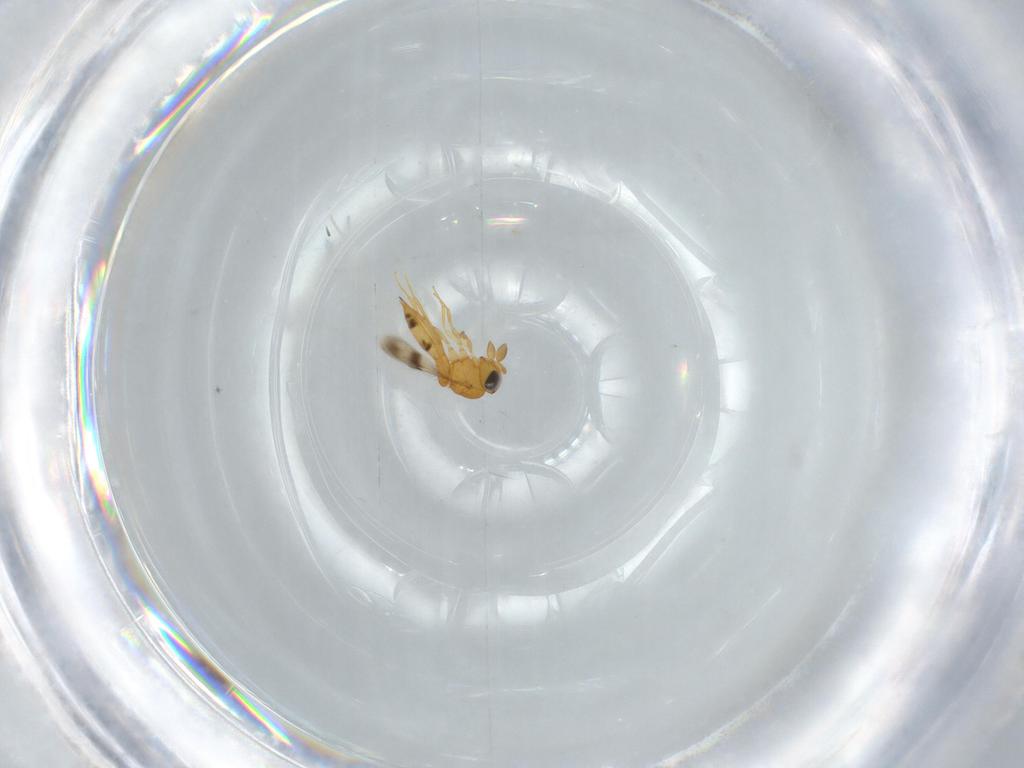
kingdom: Animalia
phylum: Arthropoda
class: Insecta
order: Hymenoptera
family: Scelionidae
